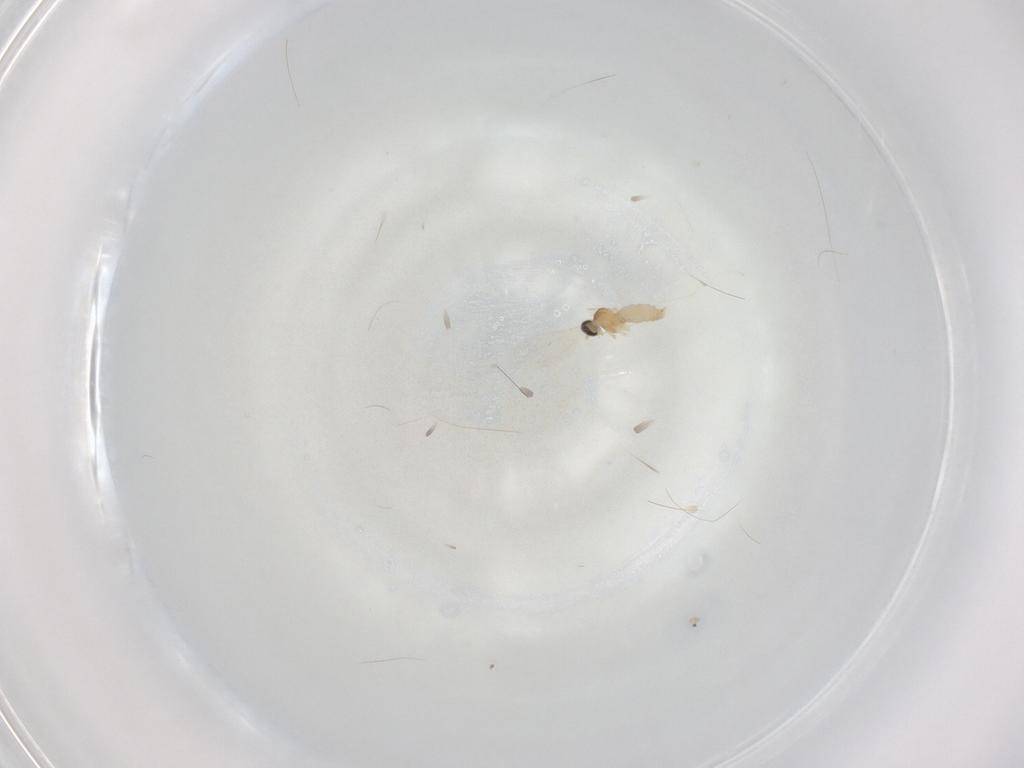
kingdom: Animalia
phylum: Arthropoda
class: Insecta
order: Diptera
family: Cecidomyiidae
